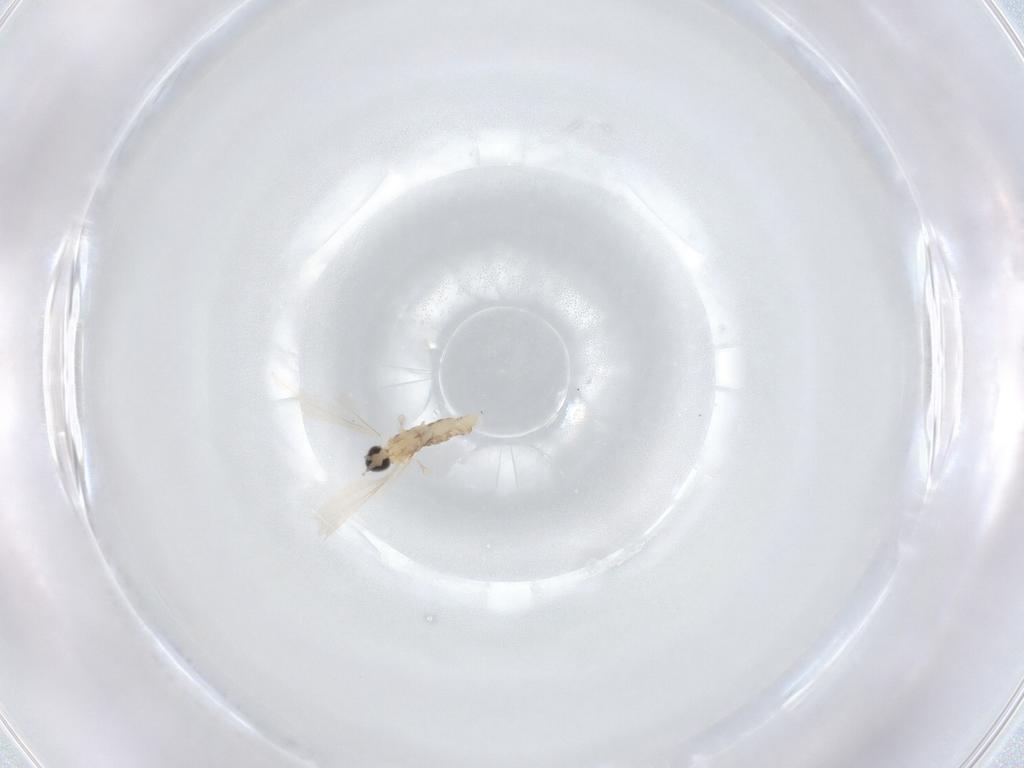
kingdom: Animalia
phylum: Arthropoda
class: Insecta
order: Diptera
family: Cecidomyiidae
